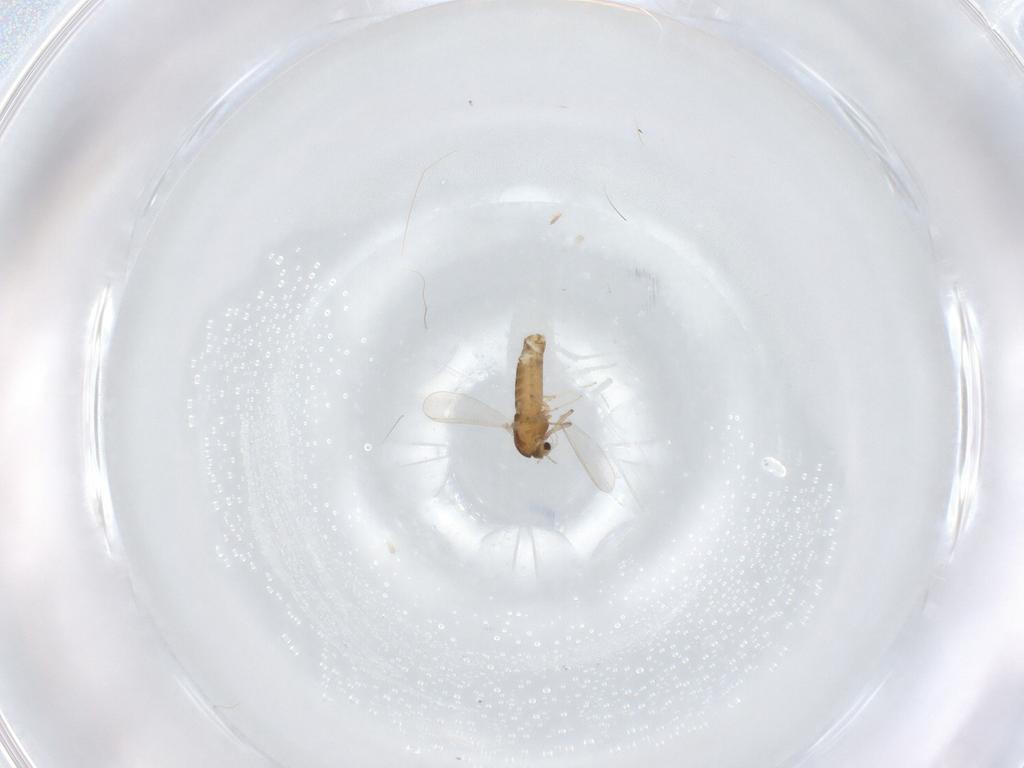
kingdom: Animalia
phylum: Arthropoda
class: Insecta
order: Diptera
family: Chironomidae
